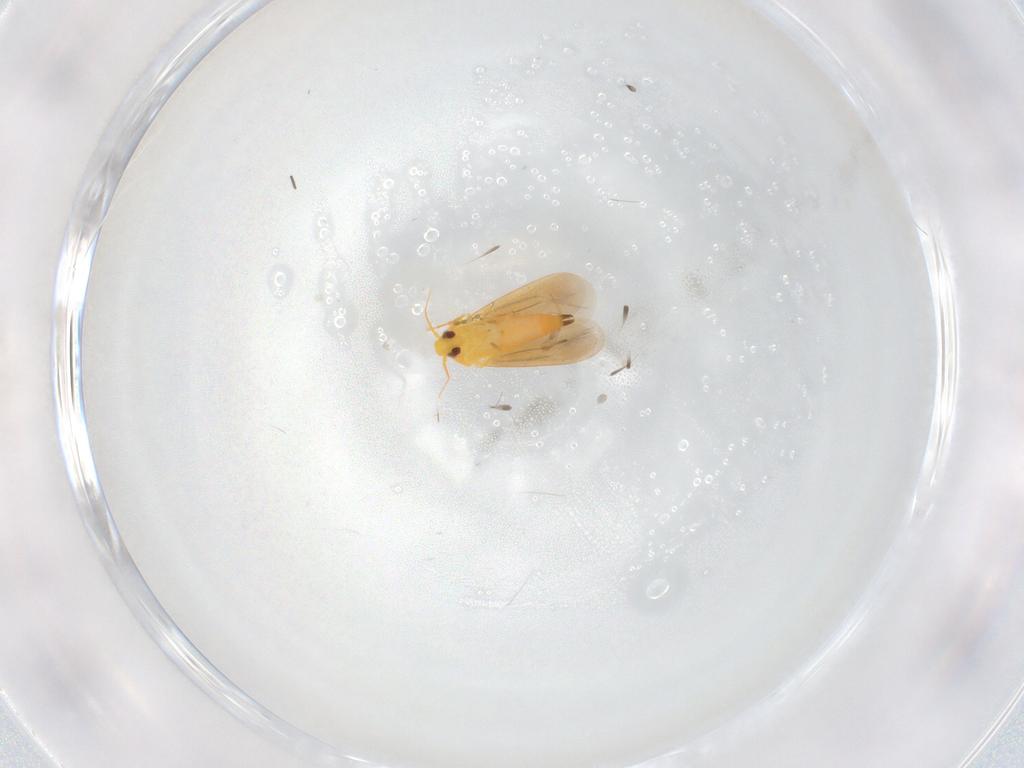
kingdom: Animalia
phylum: Arthropoda
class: Insecta
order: Hemiptera
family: Aleyrodidae
